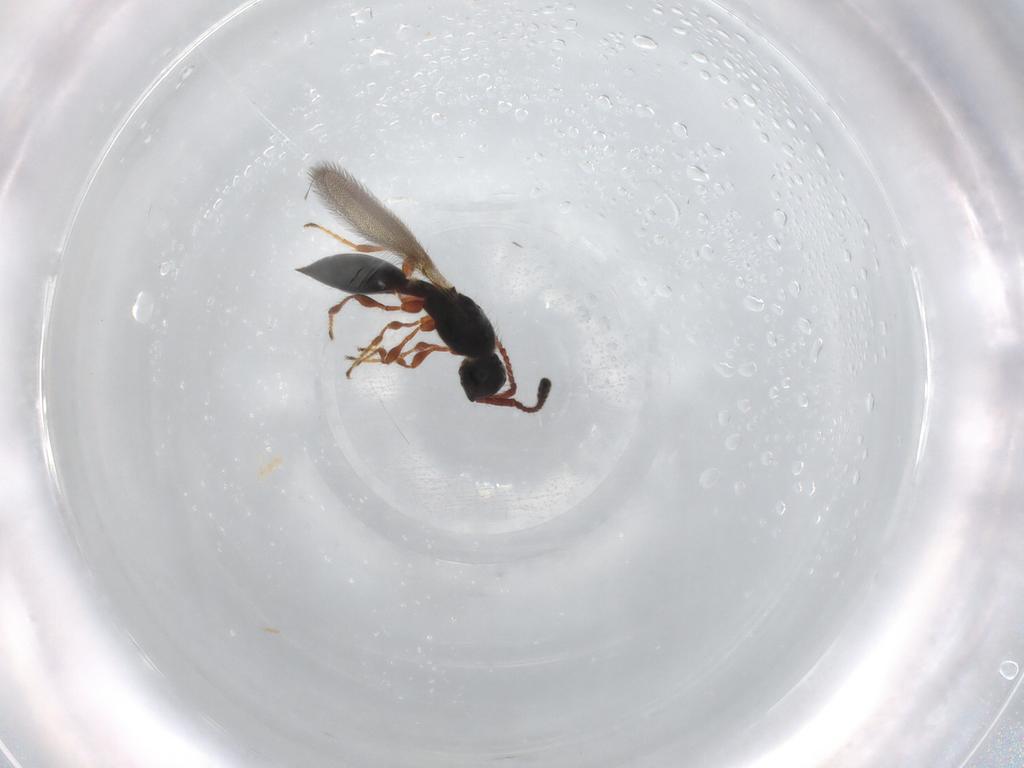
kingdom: Animalia
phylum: Arthropoda
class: Insecta
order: Hymenoptera
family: Diapriidae
